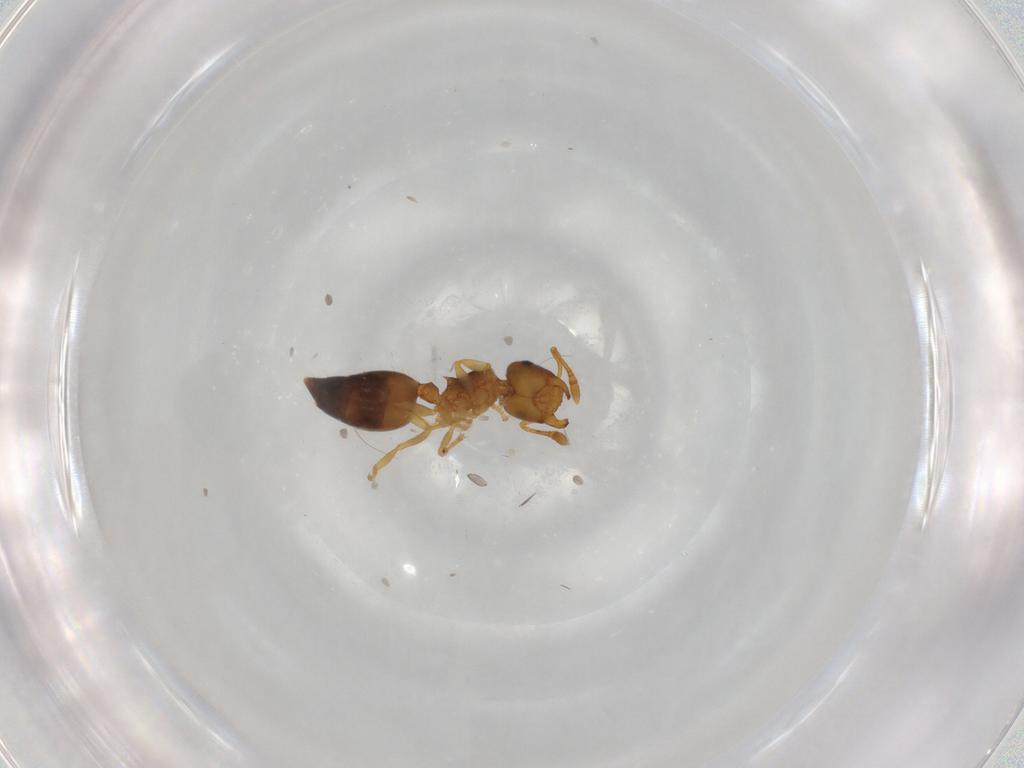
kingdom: Animalia
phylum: Arthropoda
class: Insecta
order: Hymenoptera
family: Formicidae
